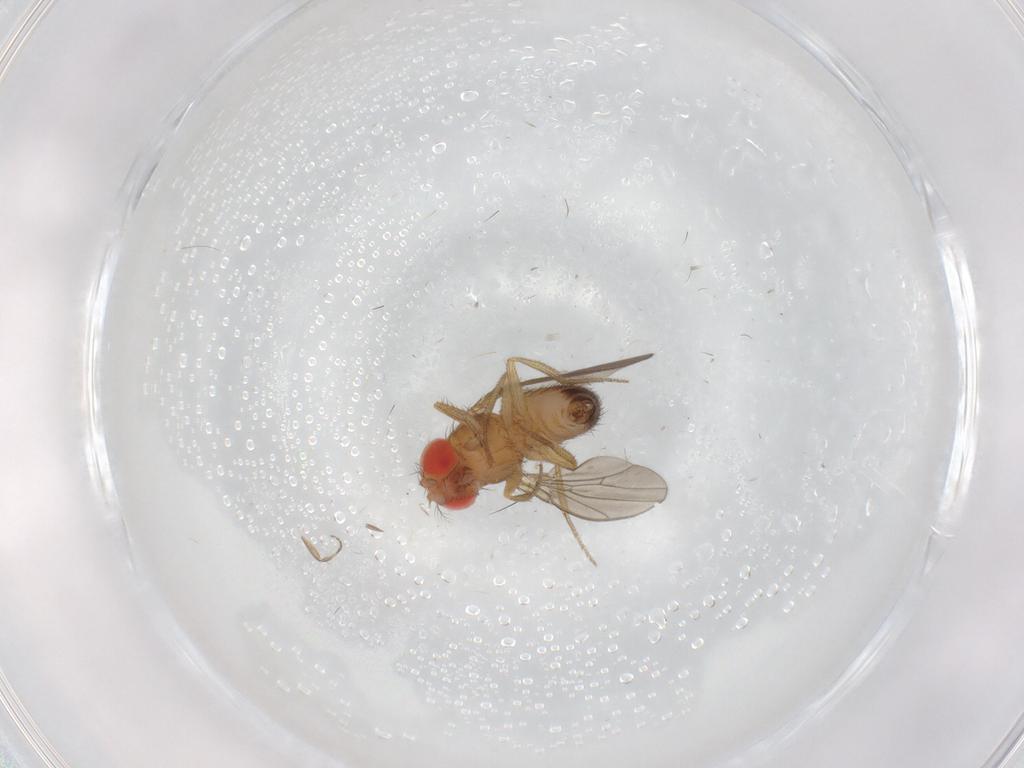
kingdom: Animalia
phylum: Arthropoda
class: Insecta
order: Diptera
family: Drosophilidae
